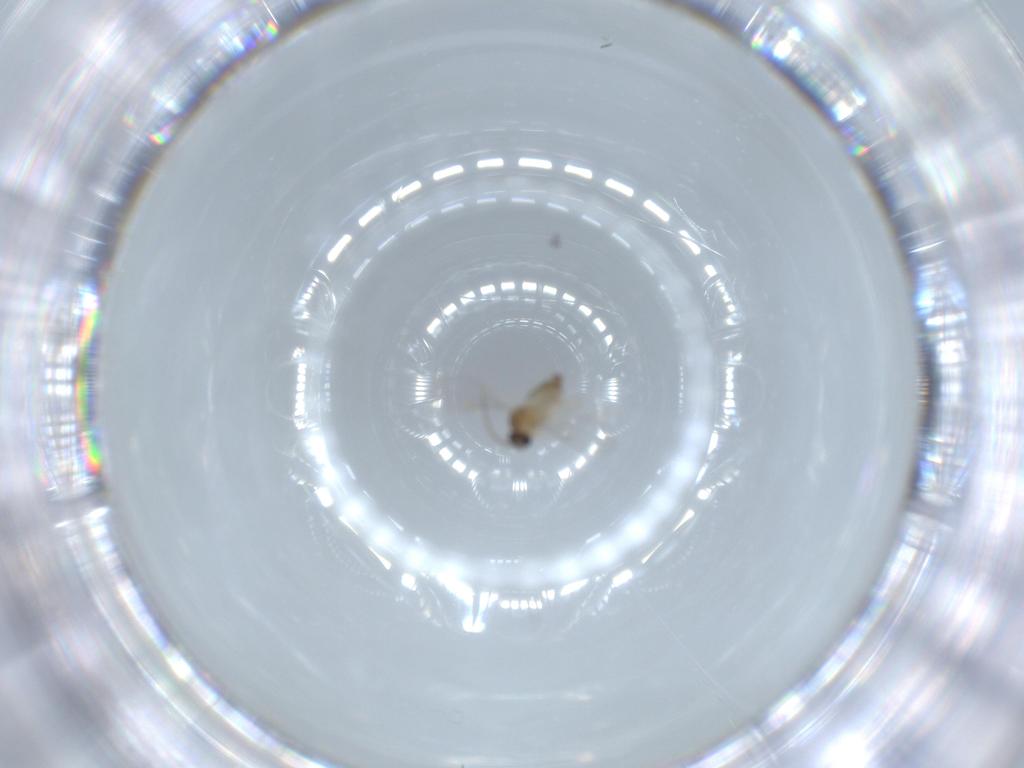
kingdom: Animalia
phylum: Arthropoda
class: Insecta
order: Diptera
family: Cecidomyiidae
